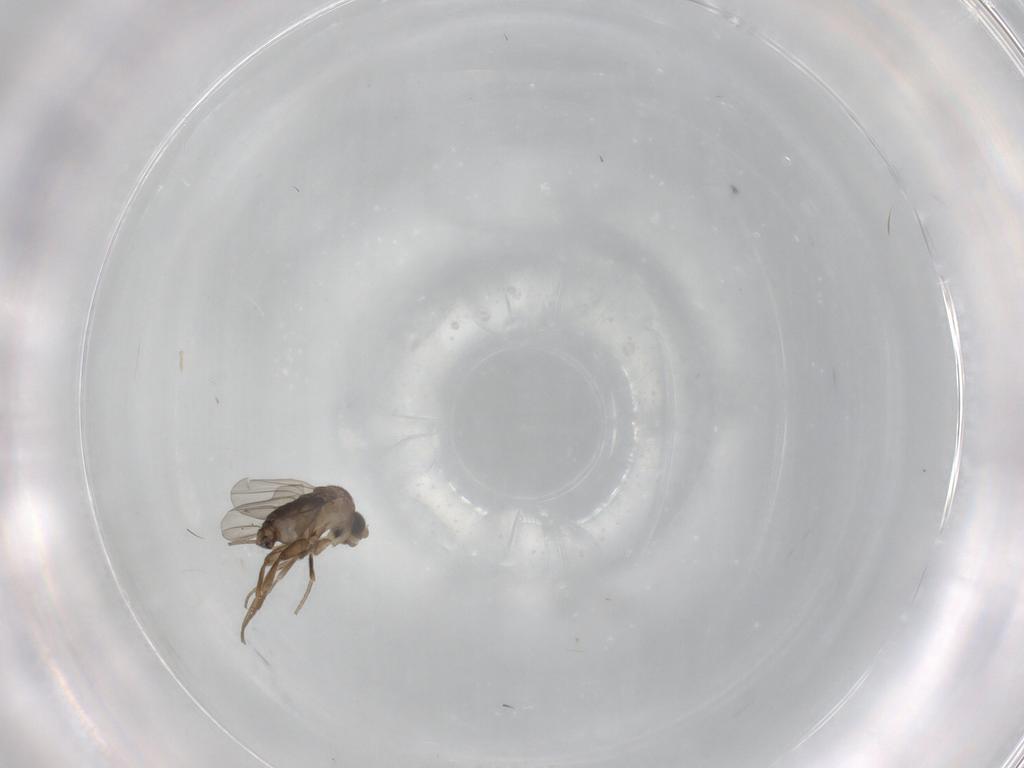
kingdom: Animalia
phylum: Arthropoda
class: Insecta
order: Diptera
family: Phoridae
